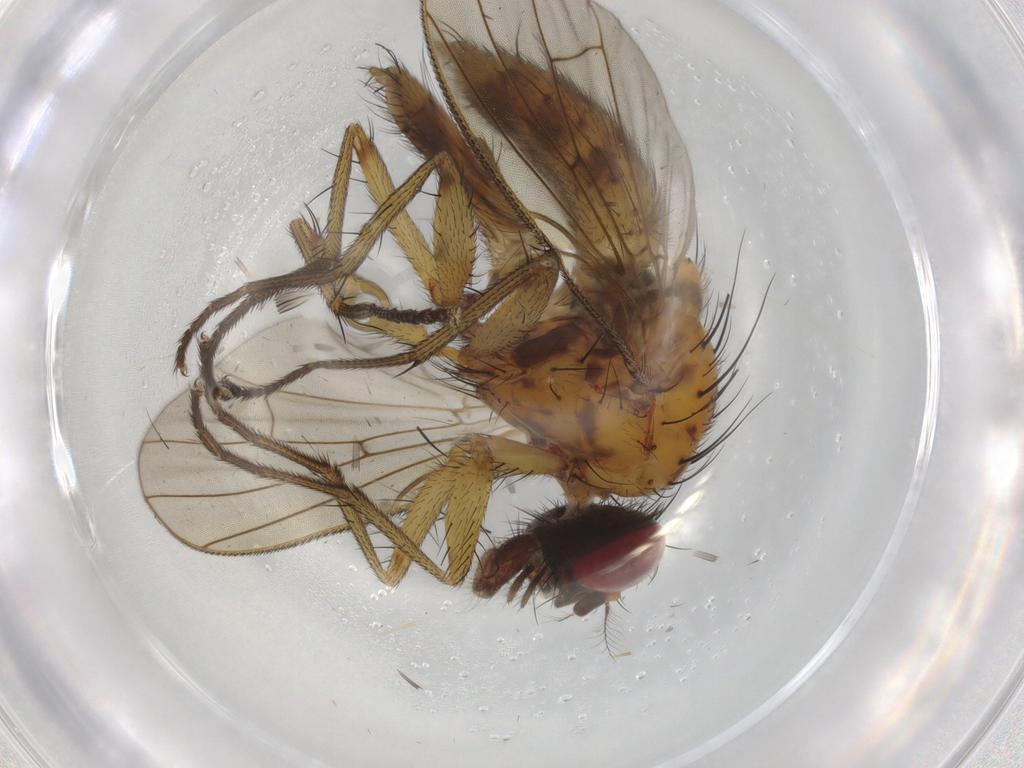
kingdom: Animalia
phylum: Arthropoda
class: Insecta
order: Diptera
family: Muscidae
